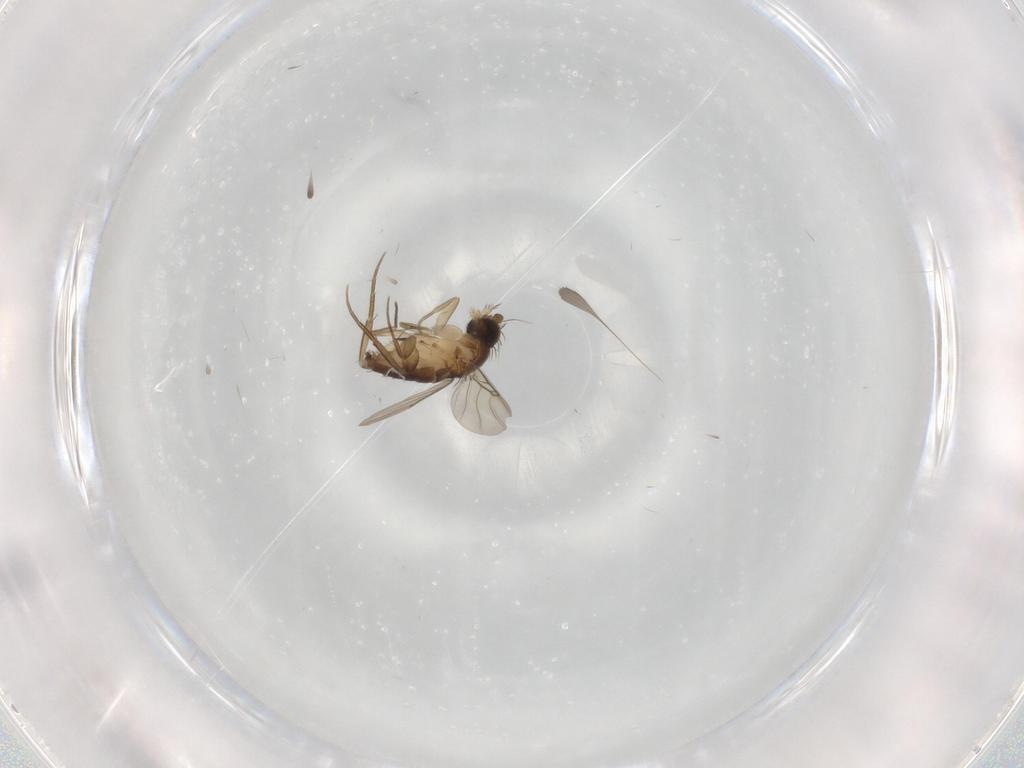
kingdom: Animalia
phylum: Arthropoda
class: Insecta
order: Diptera
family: Phoridae
